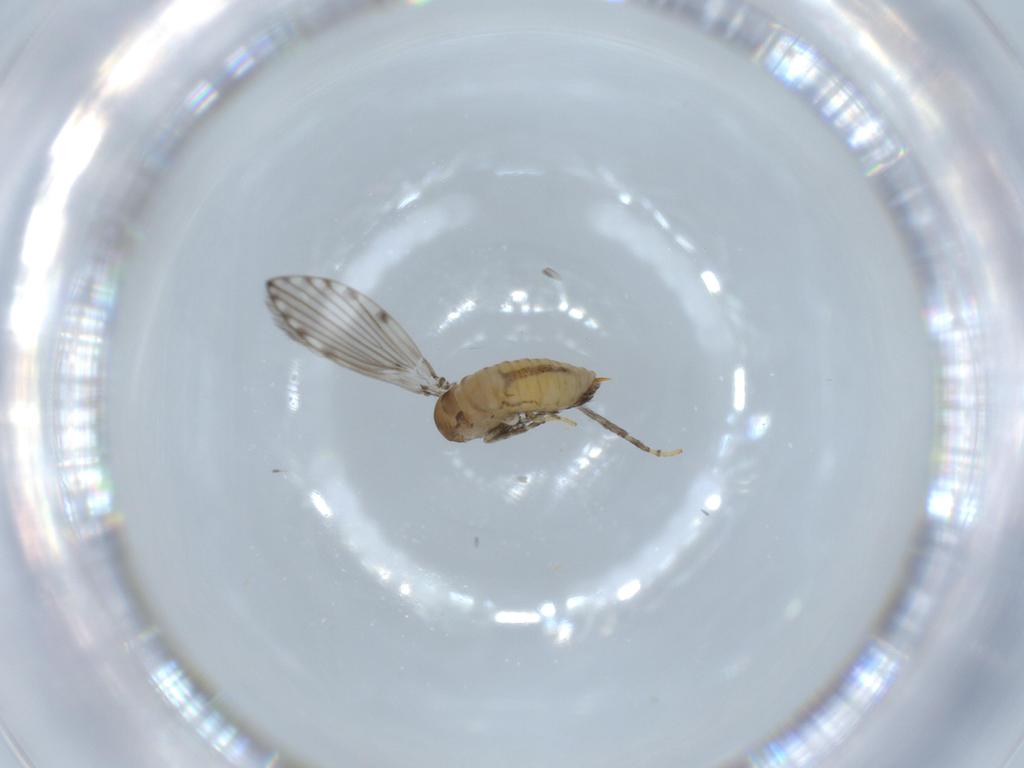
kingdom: Animalia
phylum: Arthropoda
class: Insecta
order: Diptera
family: Psychodidae
